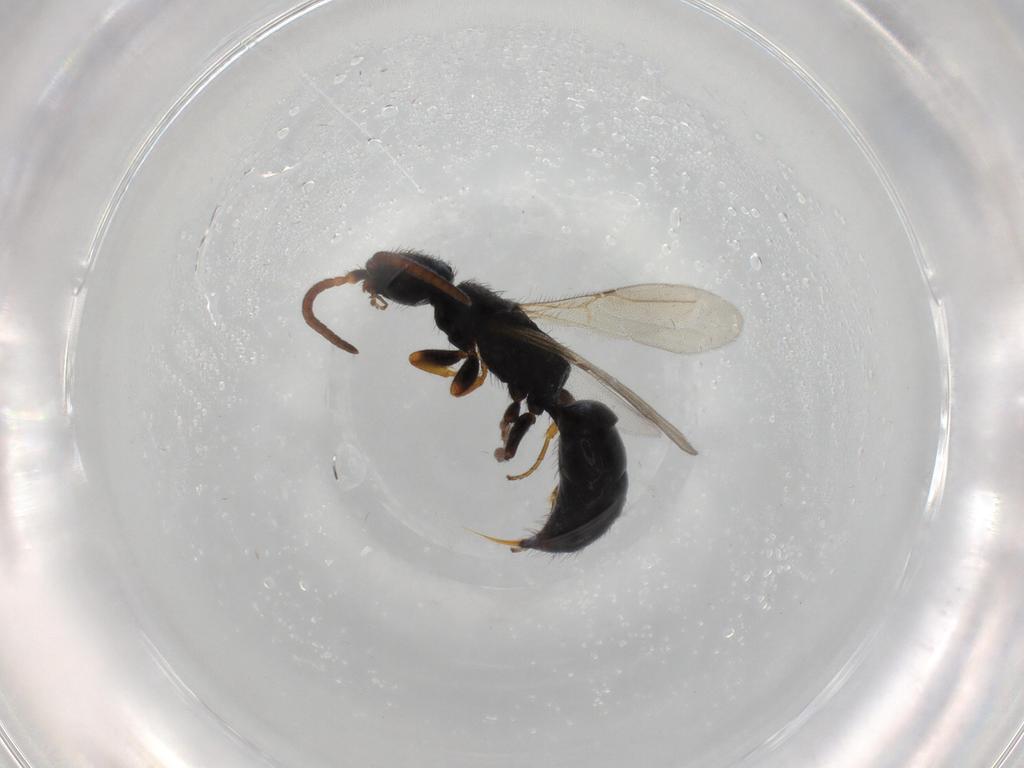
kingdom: Animalia
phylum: Arthropoda
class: Insecta
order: Hymenoptera
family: Bethylidae
